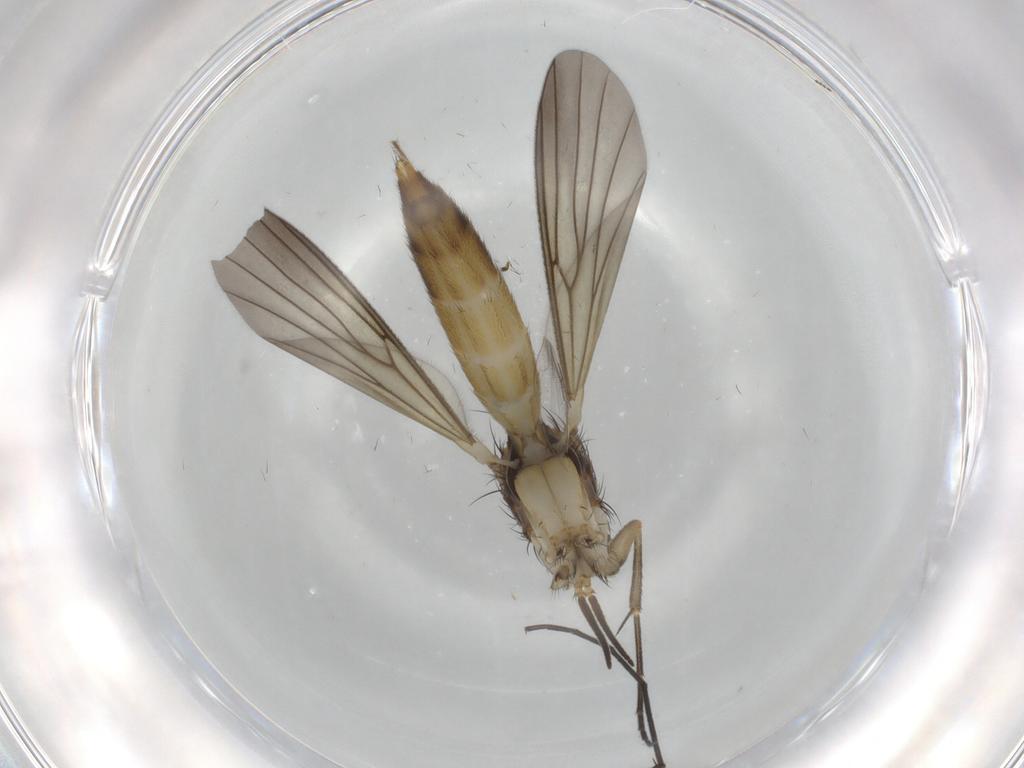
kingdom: Animalia
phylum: Arthropoda
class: Insecta
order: Diptera
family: Sciaridae
